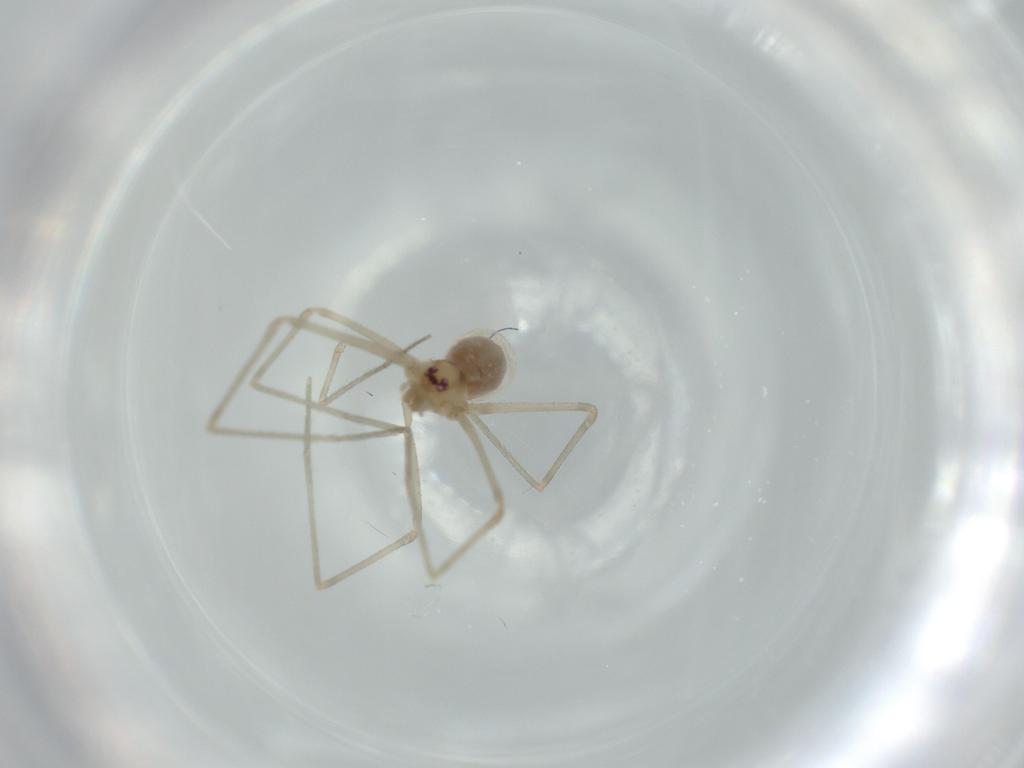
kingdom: Animalia
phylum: Arthropoda
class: Arachnida
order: Araneae
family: Pholcidae
